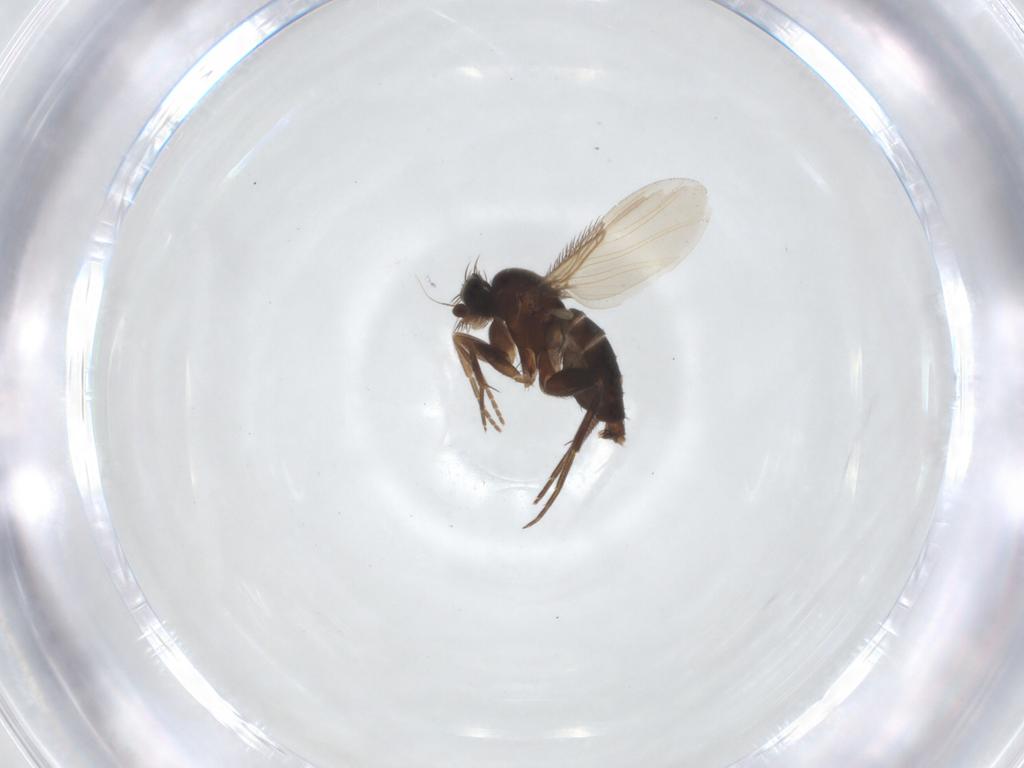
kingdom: Animalia
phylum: Arthropoda
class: Insecta
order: Diptera
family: Phoridae
